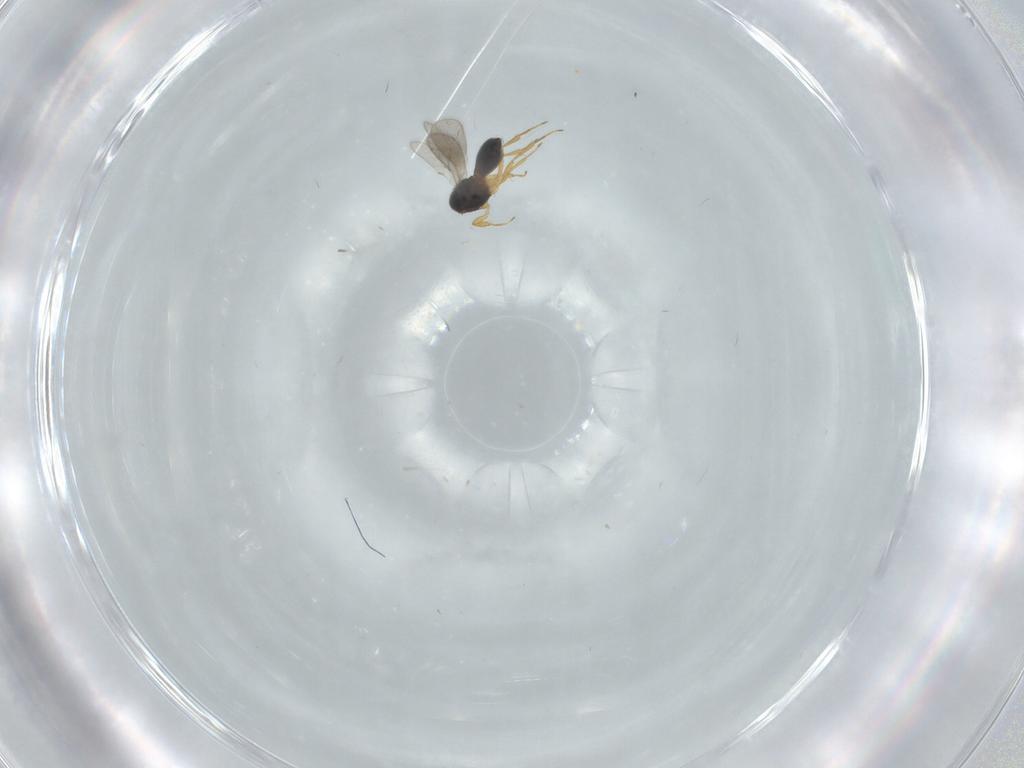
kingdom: Animalia
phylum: Arthropoda
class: Insecta
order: Hymenoptera
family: Scelionidae
